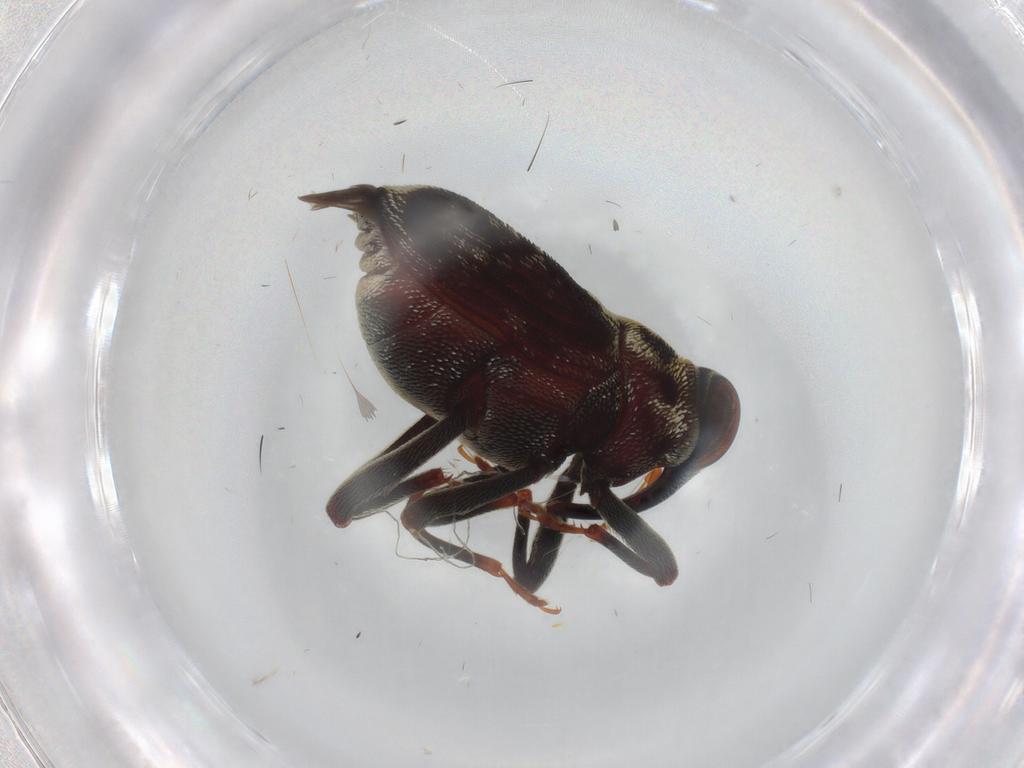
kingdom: Animalia
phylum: Arthropoda
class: Insecta
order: Coleoptera
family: Curculionidae
